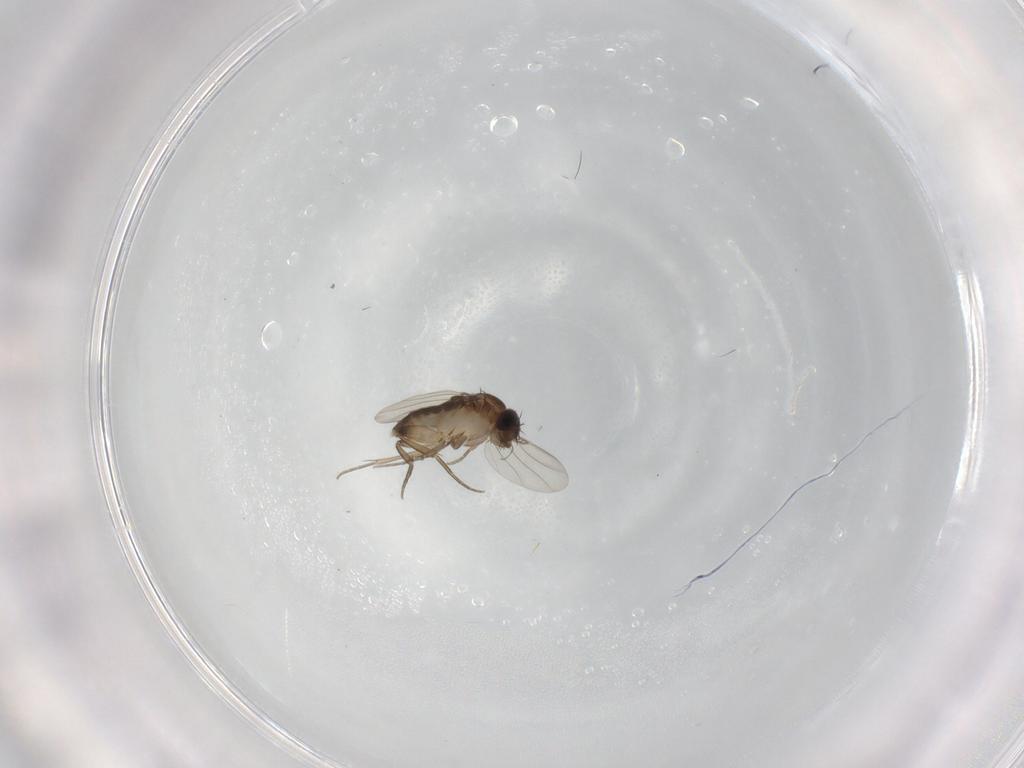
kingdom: Animalia
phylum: Arthropoda
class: Insecta
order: Diptera
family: Phoridae
